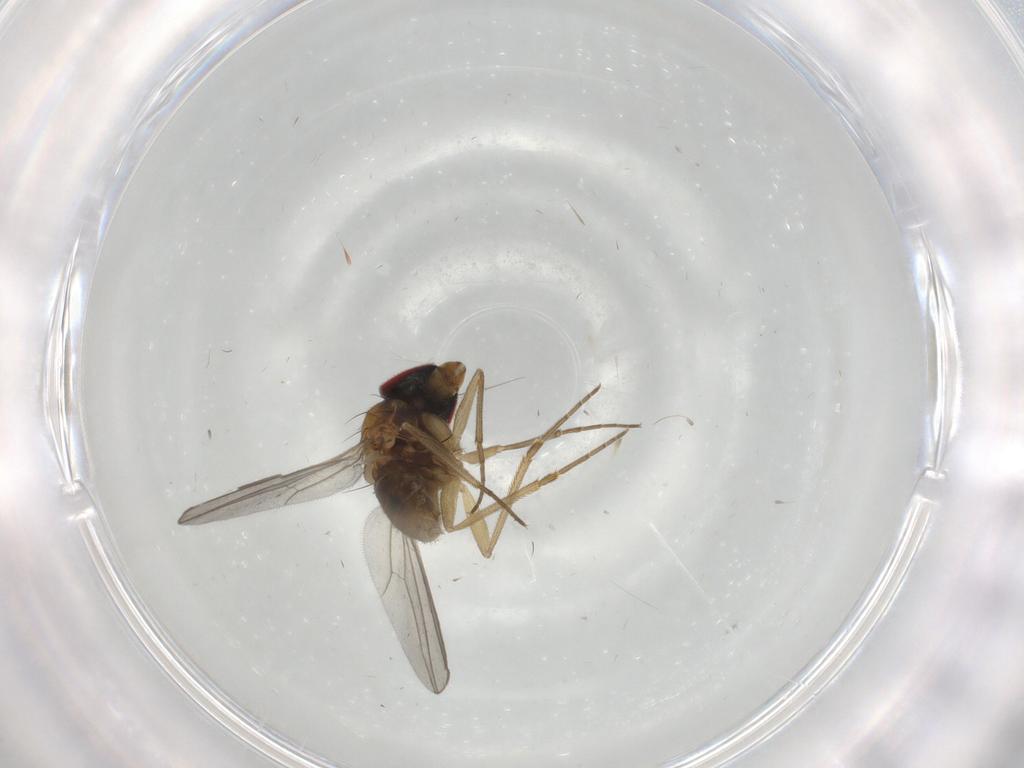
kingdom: Animalia
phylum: Arthropoda
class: Insecta
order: Diptera
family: Dolichopodidae
